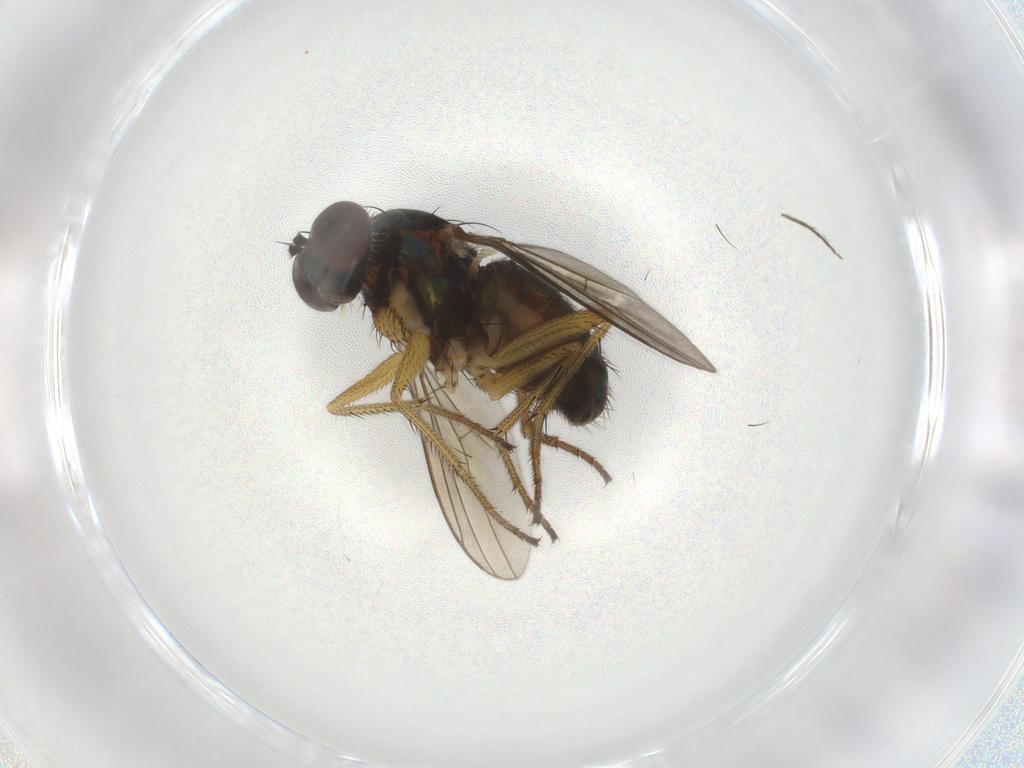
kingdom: Animalia
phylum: Arthropoda
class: Insecta
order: Diptera
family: Dolichopodidae
